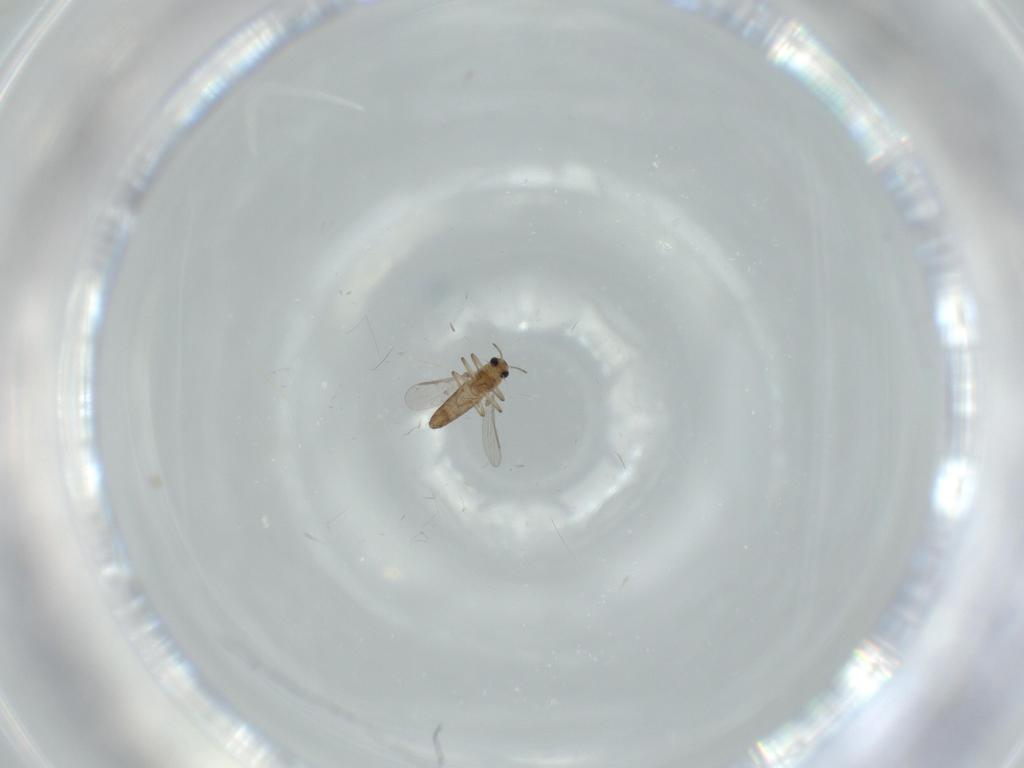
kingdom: Animalia
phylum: Arthropoda
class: Insecta
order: Diptera
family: Chironomidae
